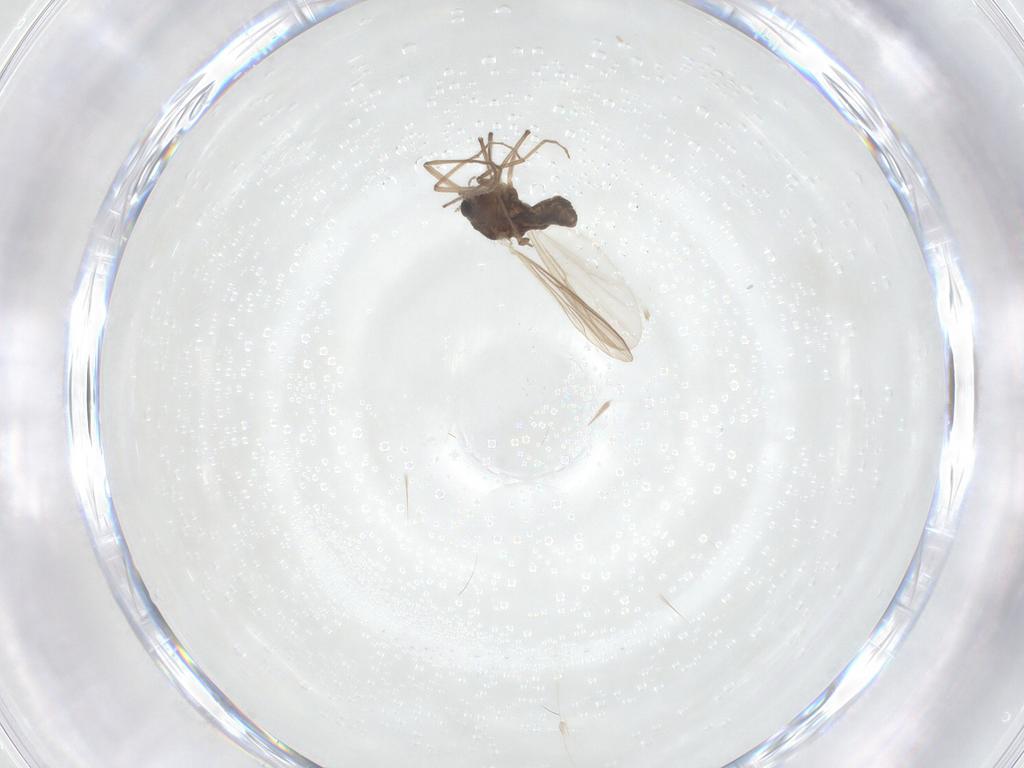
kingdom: Animalia
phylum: Arthropoda
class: Insecta
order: Diptera
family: Chironomidae
